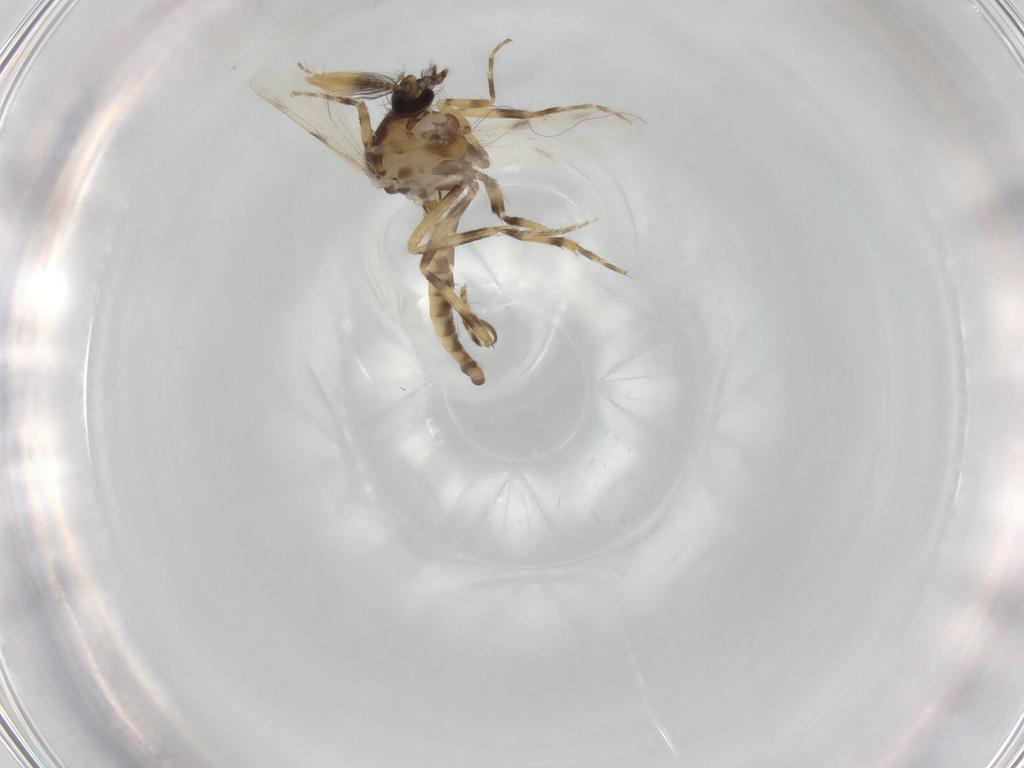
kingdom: Animalia
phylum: Arthropoda
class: Insecta
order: Diptera
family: Ceratopogonidae
